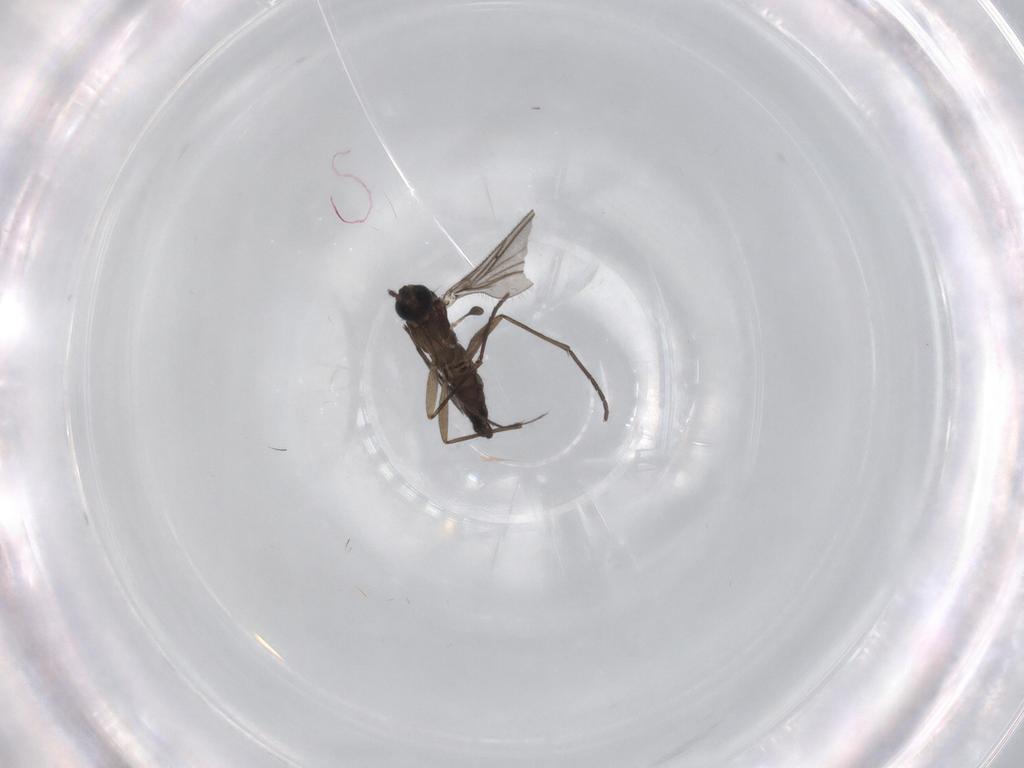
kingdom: Animalia
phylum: Arthropoda
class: Insecta
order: Diptera
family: Sciaridae
